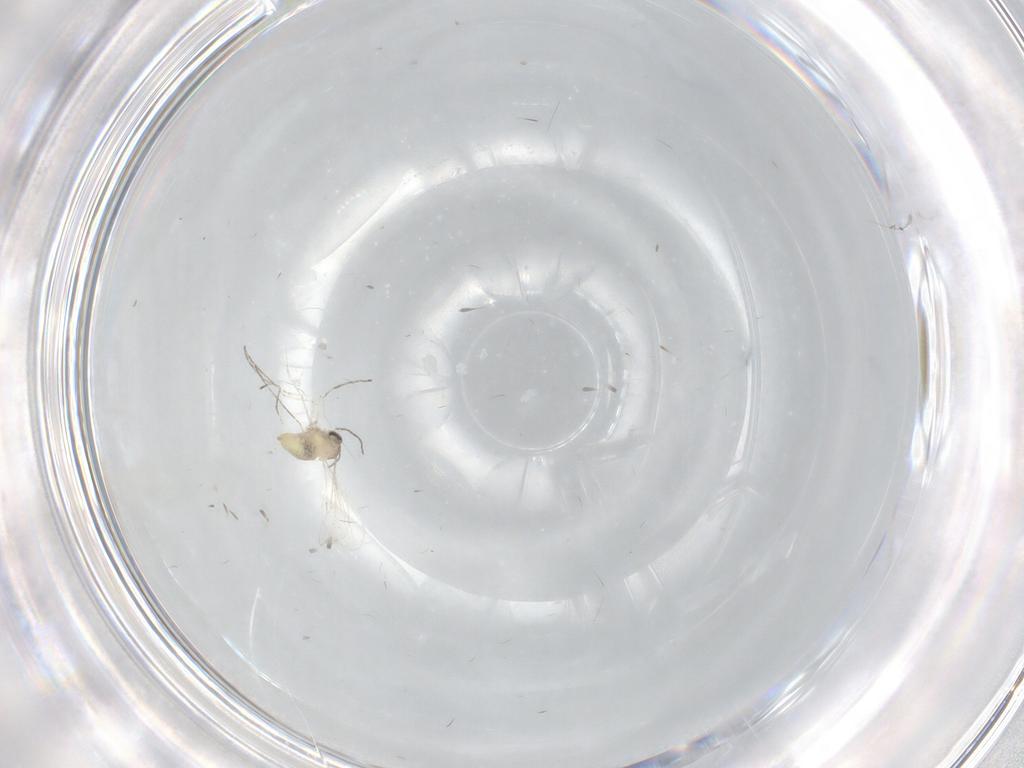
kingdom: Animalia
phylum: Arthropoda
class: Insecta
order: Diptera
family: Cecidomyiidae
